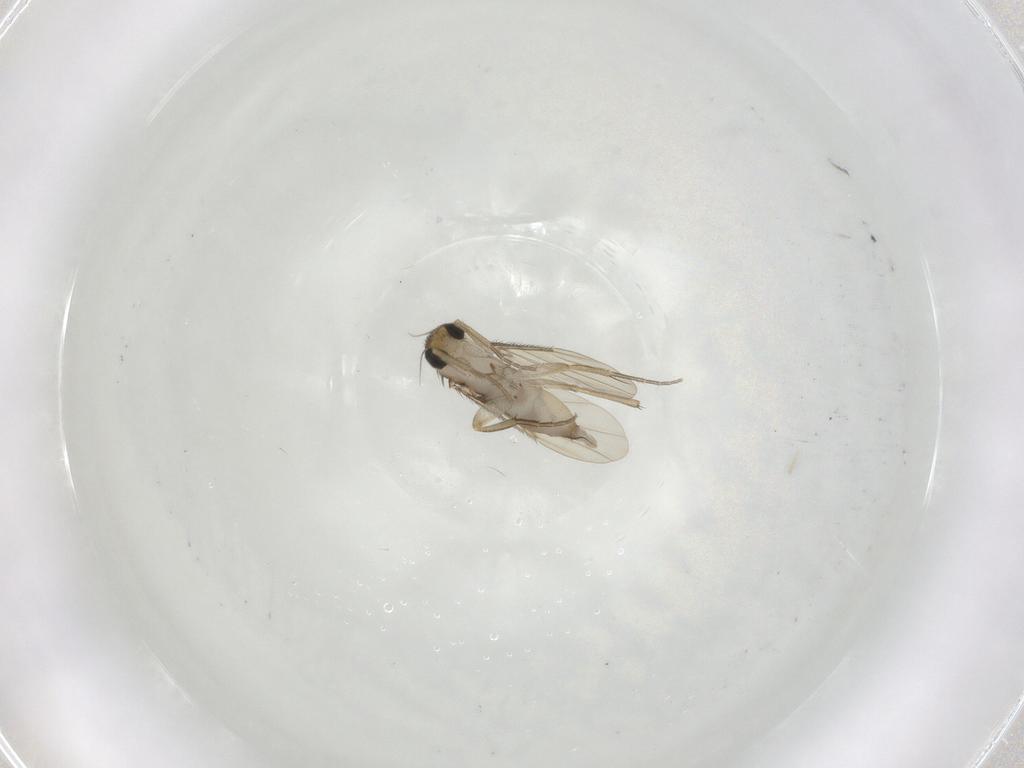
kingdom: Animalia
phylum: Arthropoda
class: Insecta
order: Diptera
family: Phoridae
